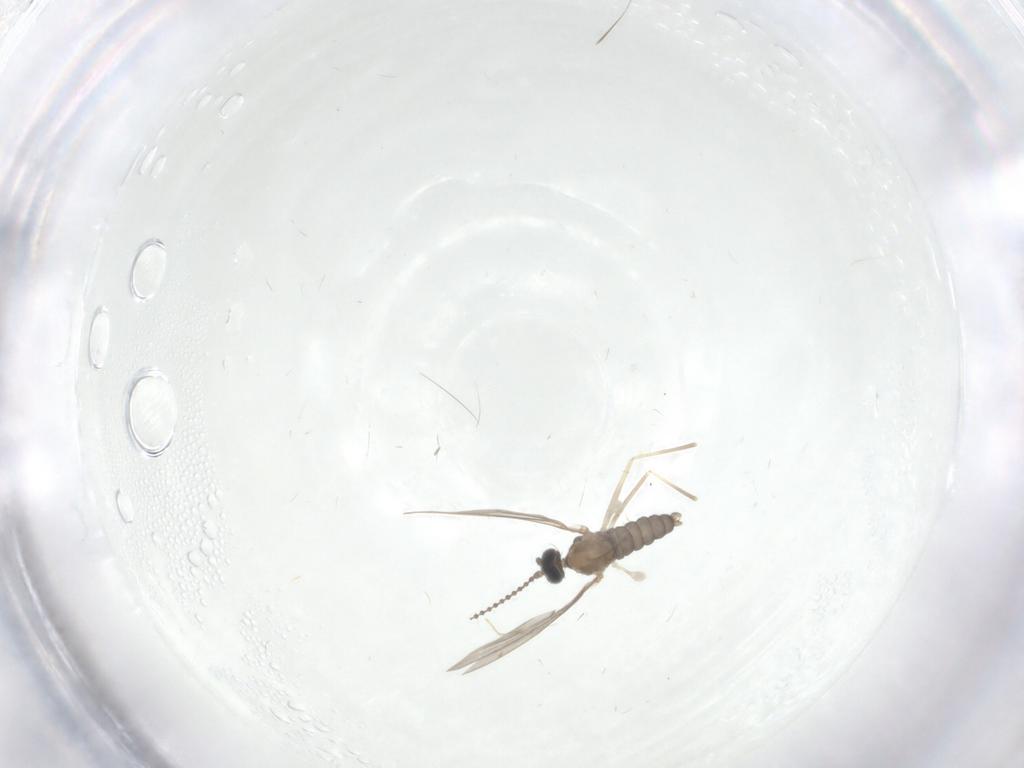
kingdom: Animalia
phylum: Arthropoda
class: Insecta
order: Diptera
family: Cecidomyiidae
